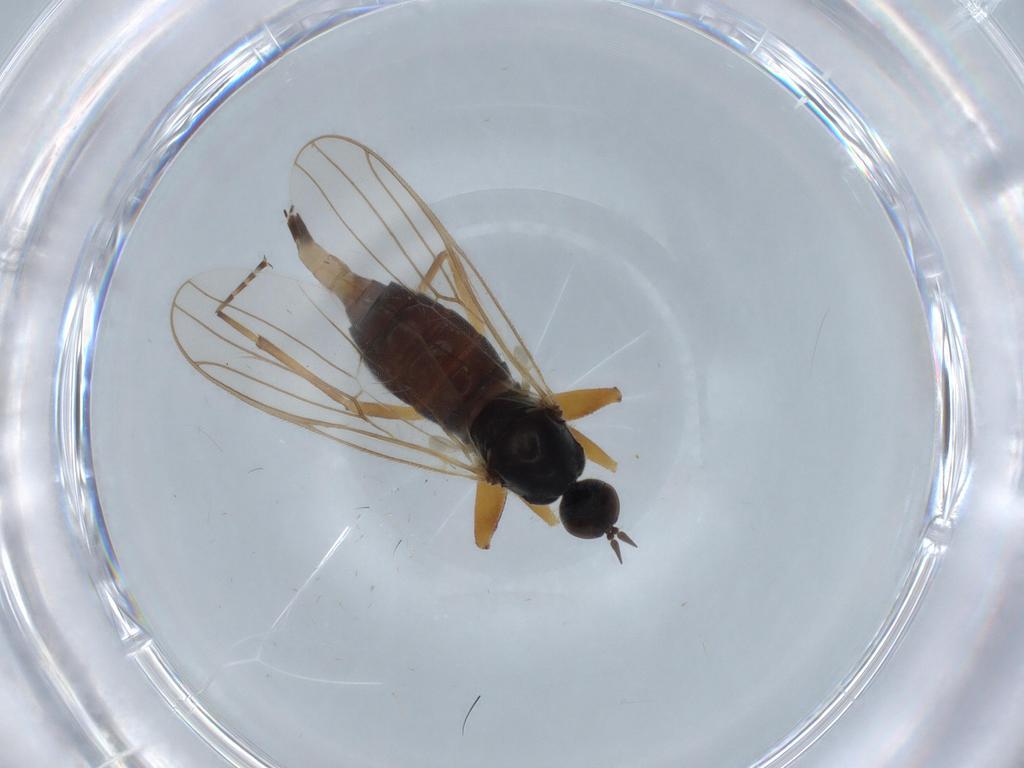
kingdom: Animalia
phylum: Arthropoda
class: Insecta
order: Diptera
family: Hybotidae
